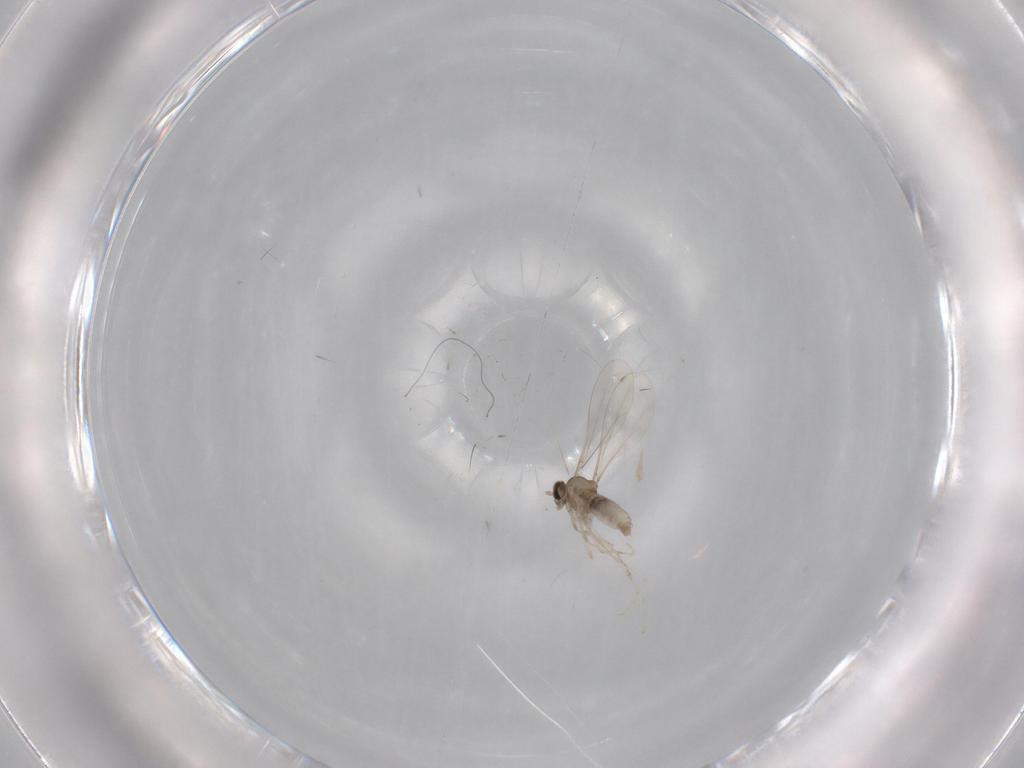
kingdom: Animalia
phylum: Arthropoda
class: Insecta
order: Diptera
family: Cecidomyiidae
